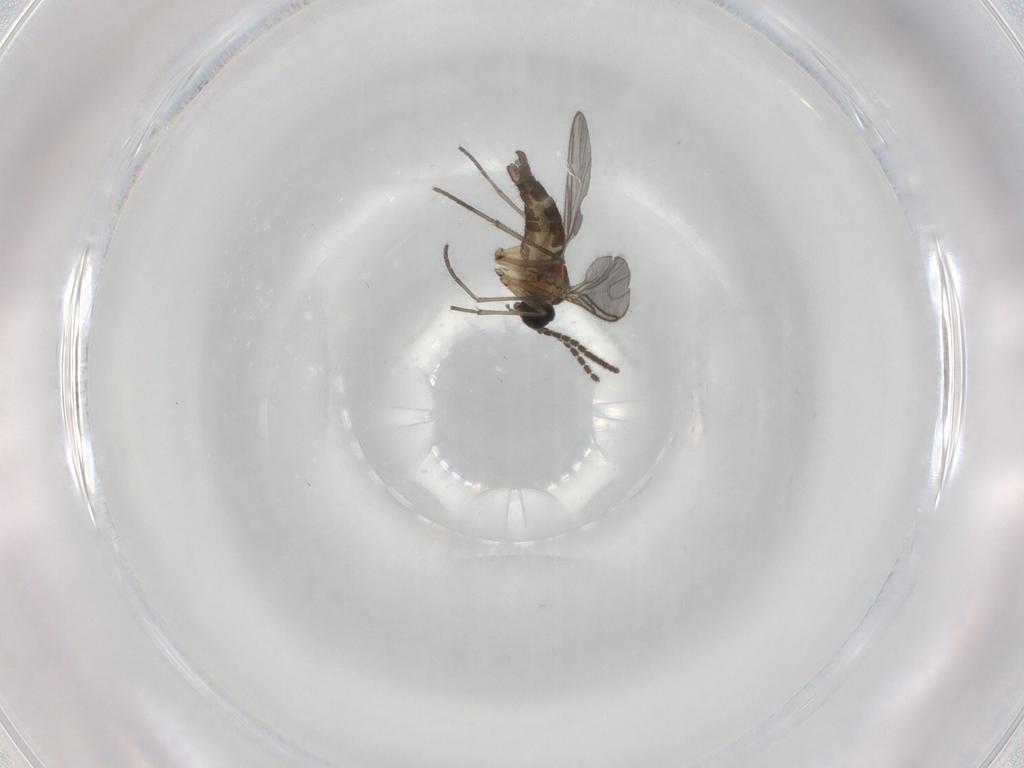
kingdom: Animalia
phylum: Arthropoda
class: Insecta
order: Diptera
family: Sciaridae
